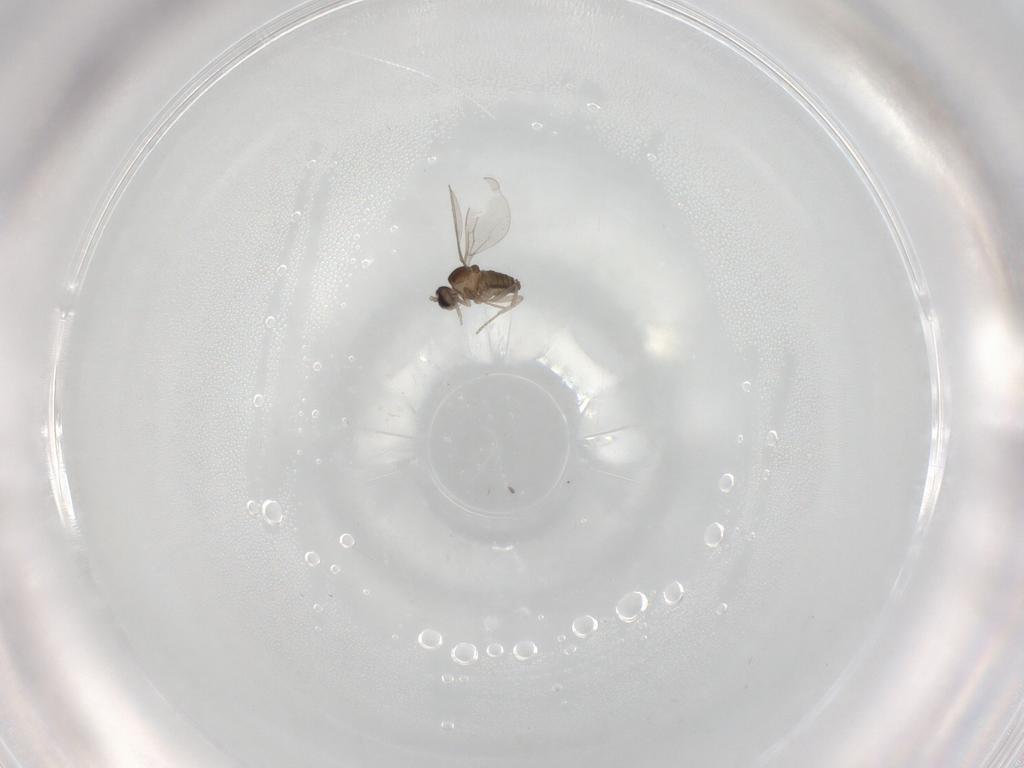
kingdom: Animalia
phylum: Arthropoda
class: Insecta
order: Diptera
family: Cecidomyiidae
